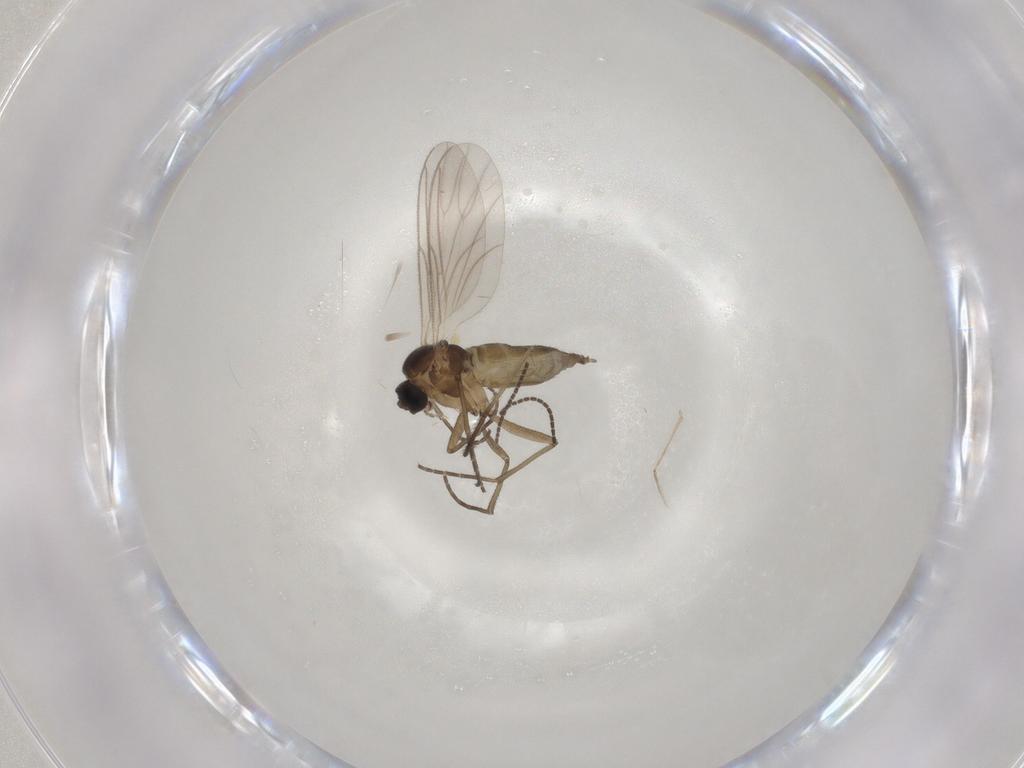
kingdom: Animalia
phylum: Arthropoda
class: Insecta
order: Diptera
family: Chironomidae
